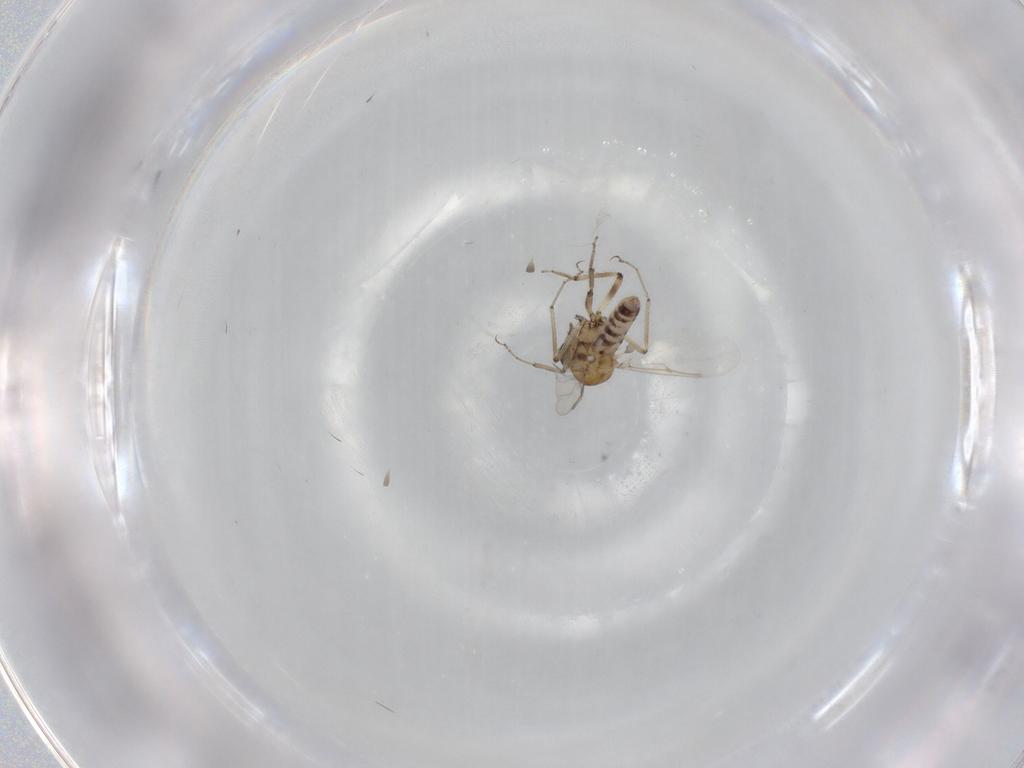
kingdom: Animalia
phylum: Arthropoda
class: Insecta
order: Diptera
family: Ceratopogonidae
